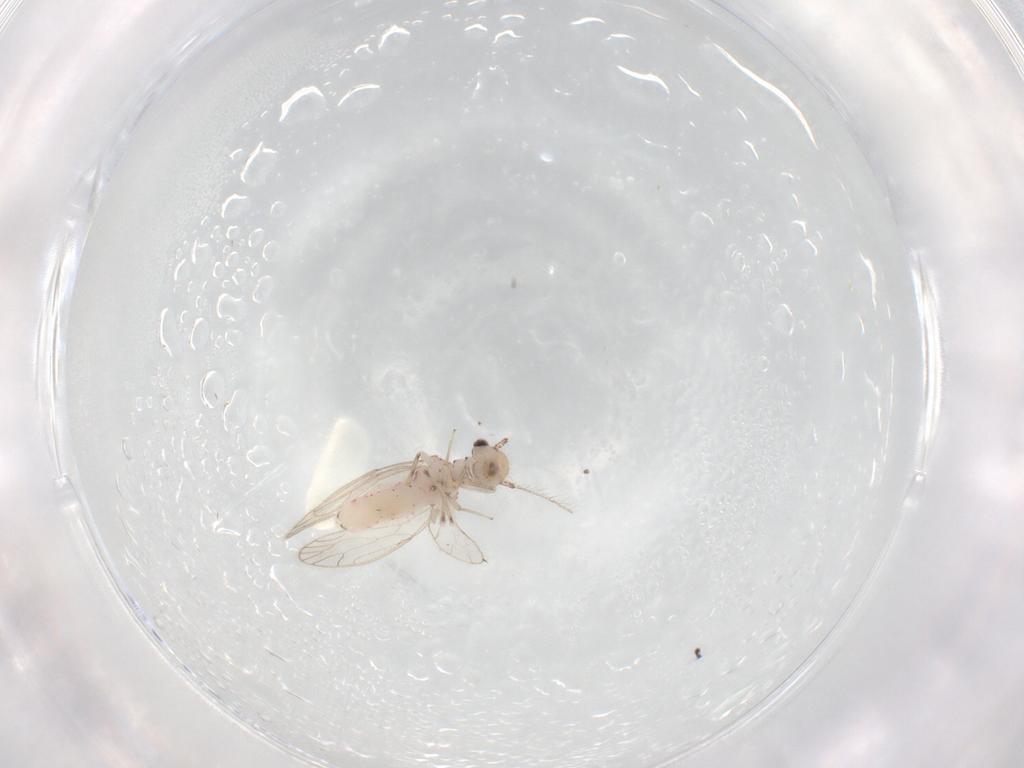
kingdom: Animalia
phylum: Arthropoda
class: Insecta
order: Psocodea
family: Caeciliusidae
